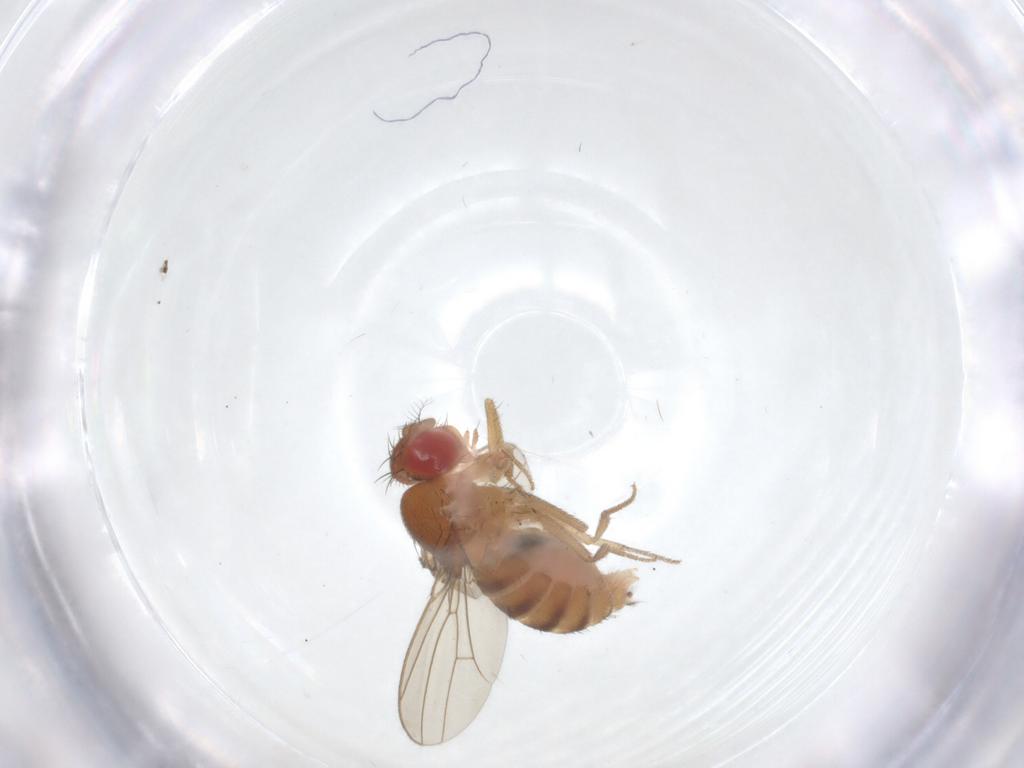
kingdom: Animalia
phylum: Arthropoda
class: Insecta
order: Diptera
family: Drosophilidae
